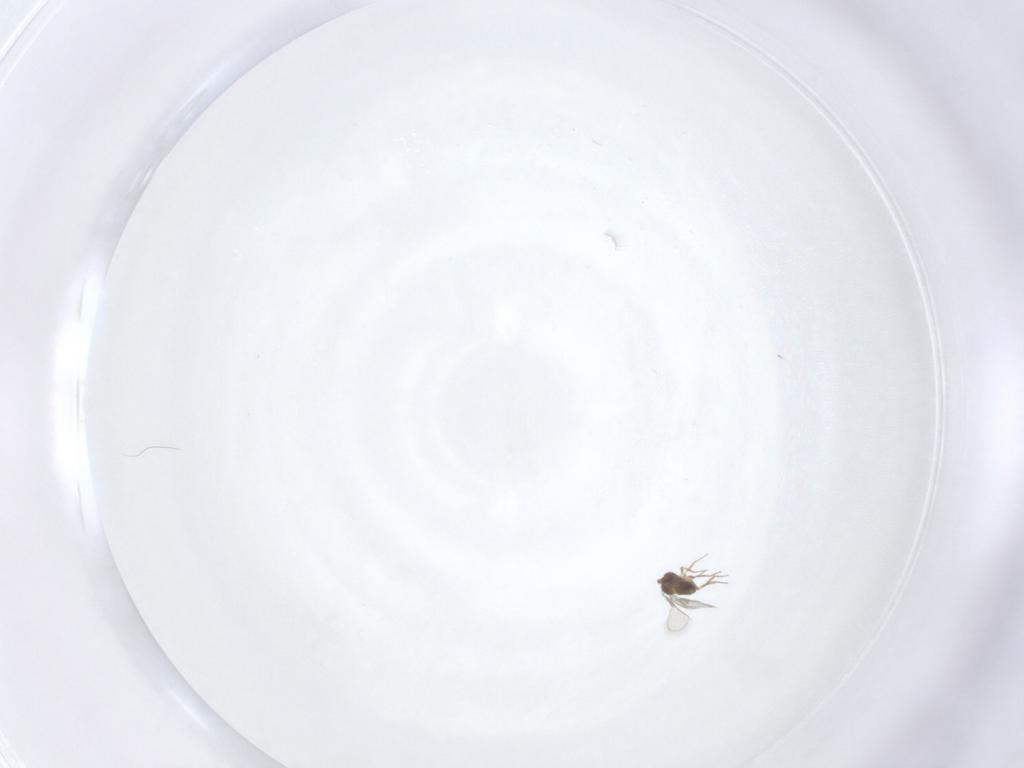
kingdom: Animalia
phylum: Arthropoda
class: Insecta
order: Hymenoptera
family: Trichogrammatidae
